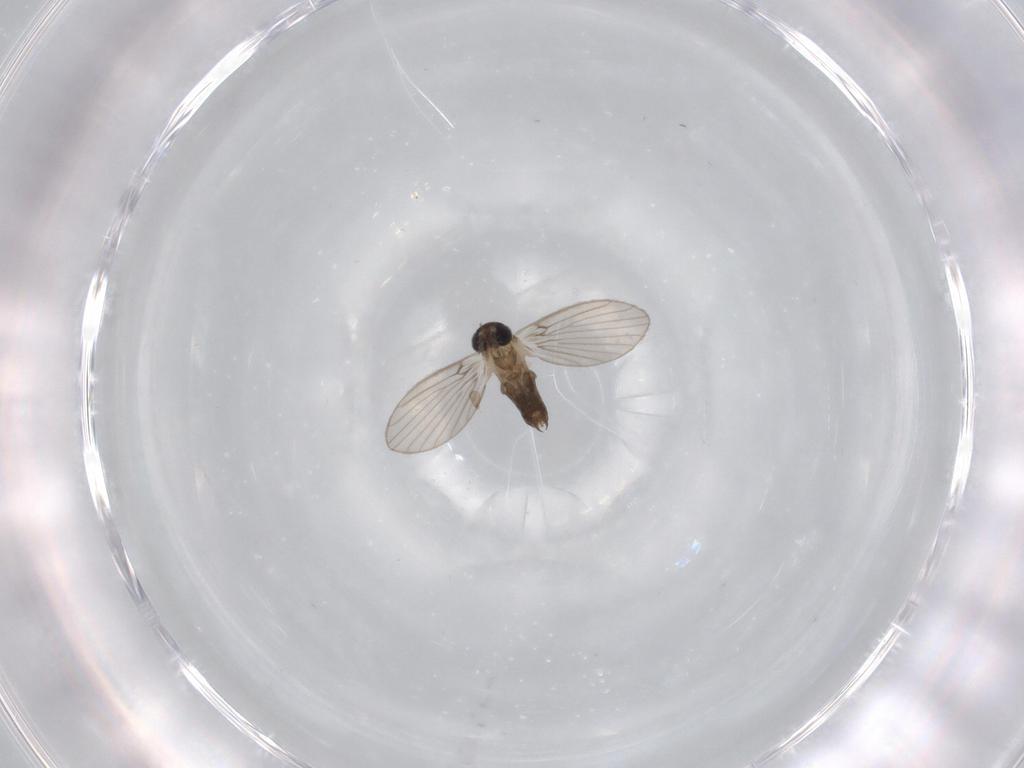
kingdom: Animalia
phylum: Arthropoda
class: Insecta
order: Diptera
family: Psychodidae
